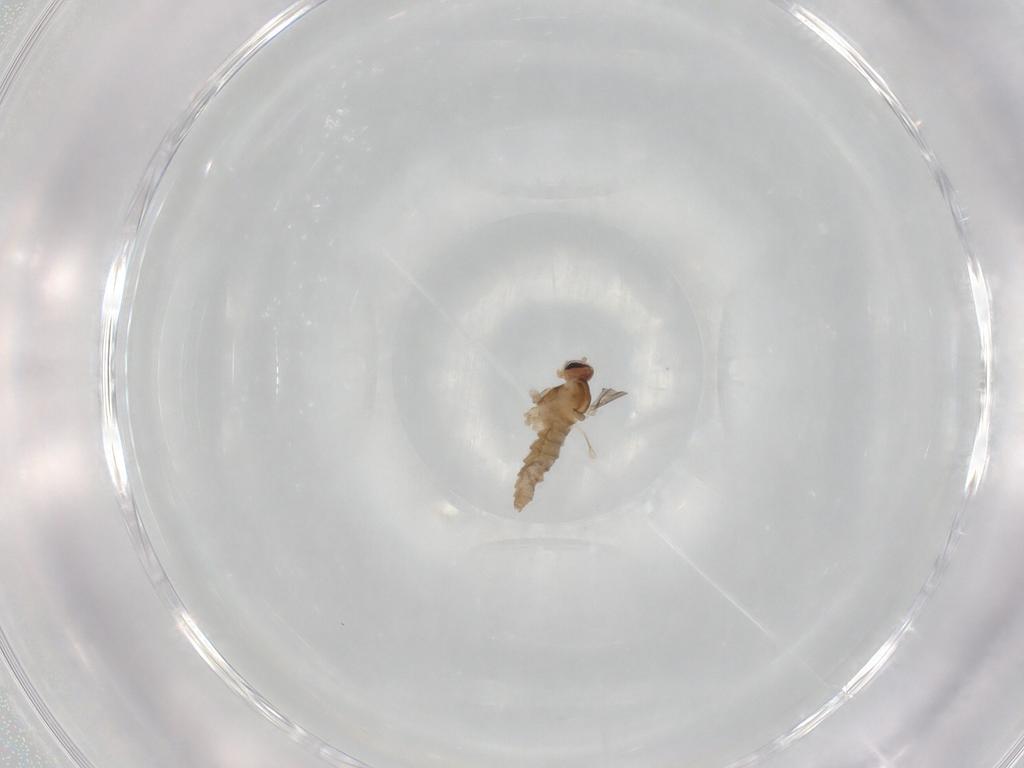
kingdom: Animalia
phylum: Arthropoda
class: Insecta
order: Diptera
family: Cecidomyiidae
